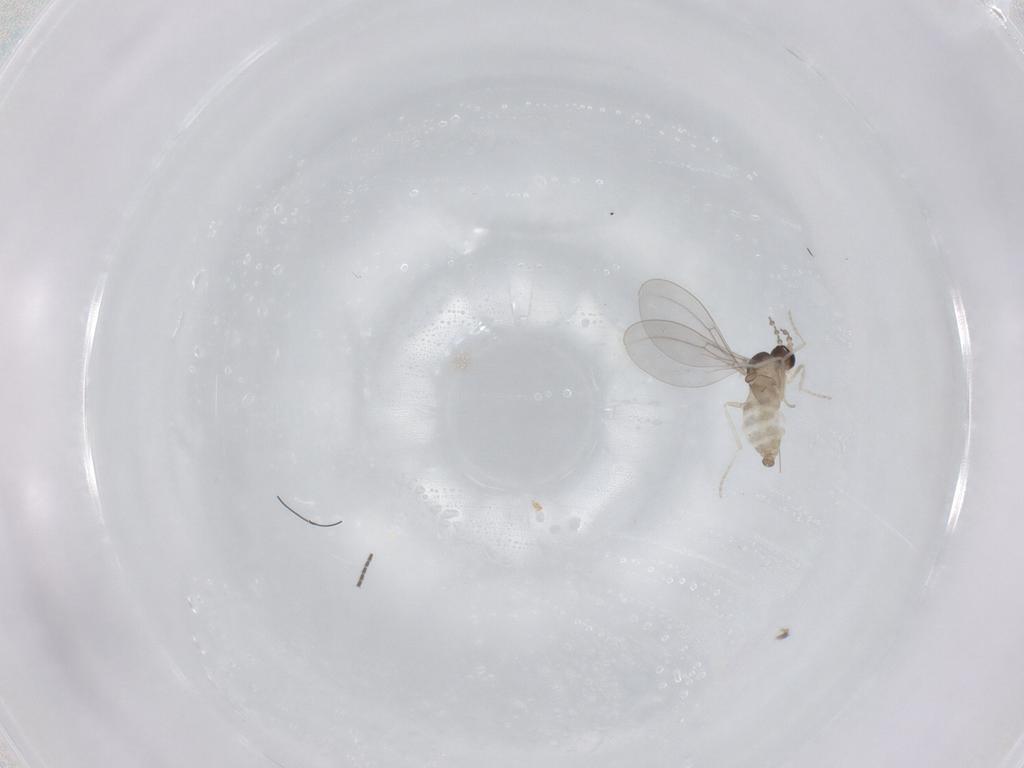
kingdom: Animalia
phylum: Arthropoda
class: Insecta
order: Diptera
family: Cecidomyiidae
